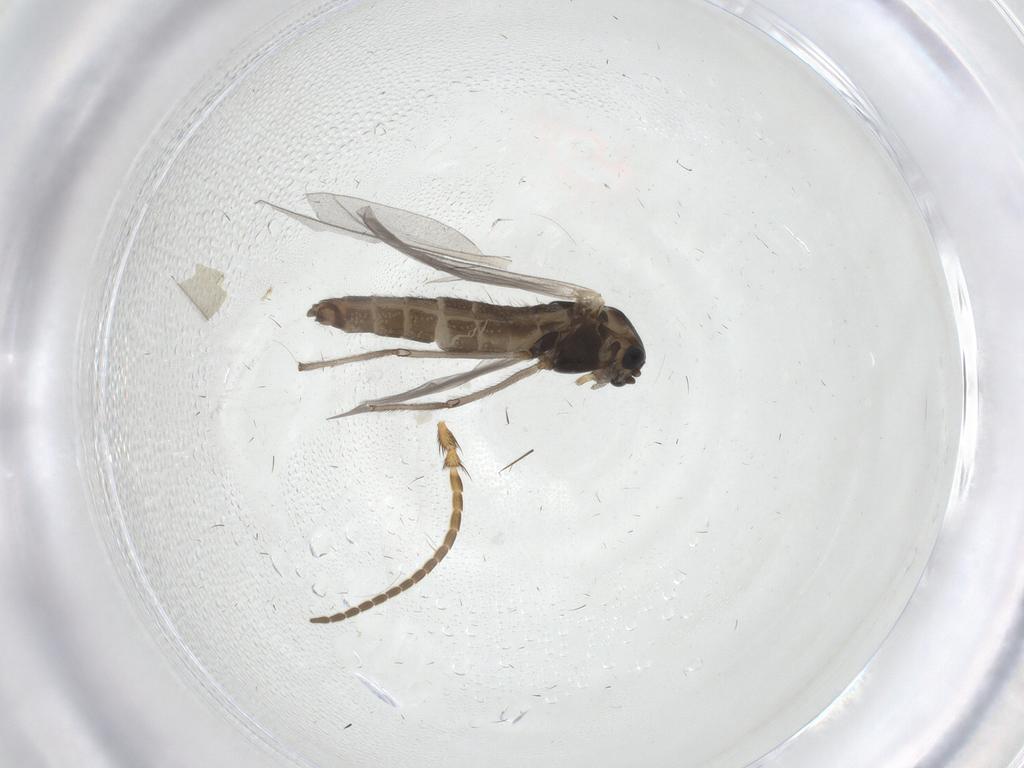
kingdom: Animalia
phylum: Arthropoda
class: Insecta
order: Diptera
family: Chironomidae
